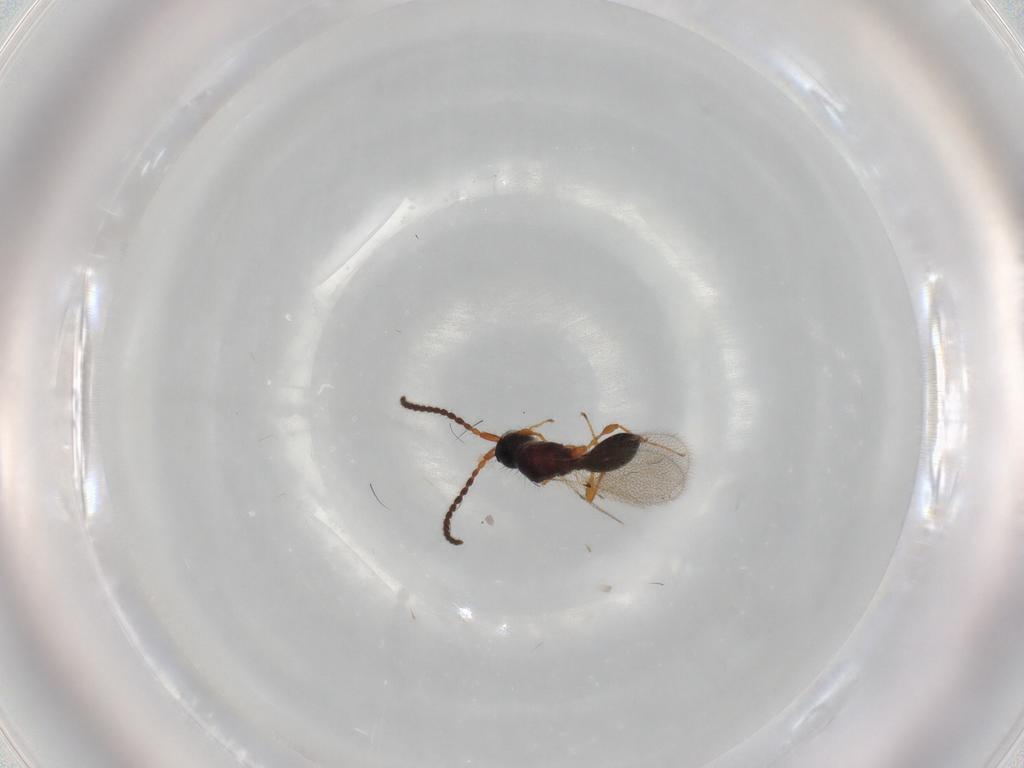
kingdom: Animalia
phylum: Arthropoda
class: Insecta
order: Hymenoptera
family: Diapriidae
